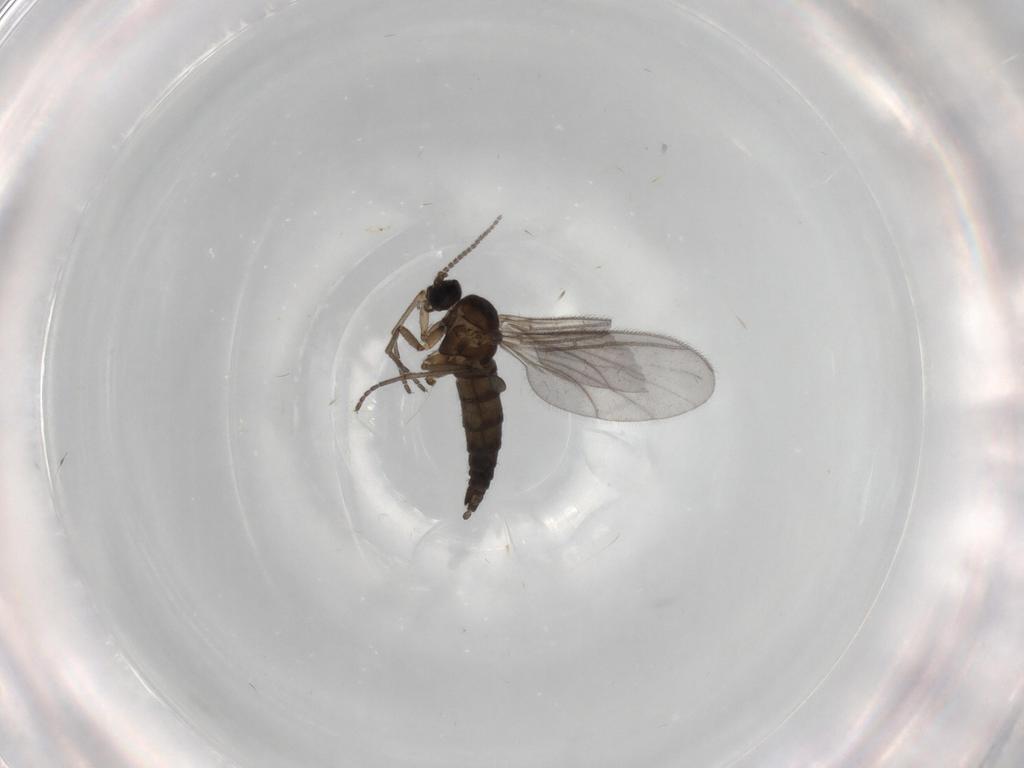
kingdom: Animalia
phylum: Arthropoda
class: Insecta
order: Diptera
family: Sciaridae
